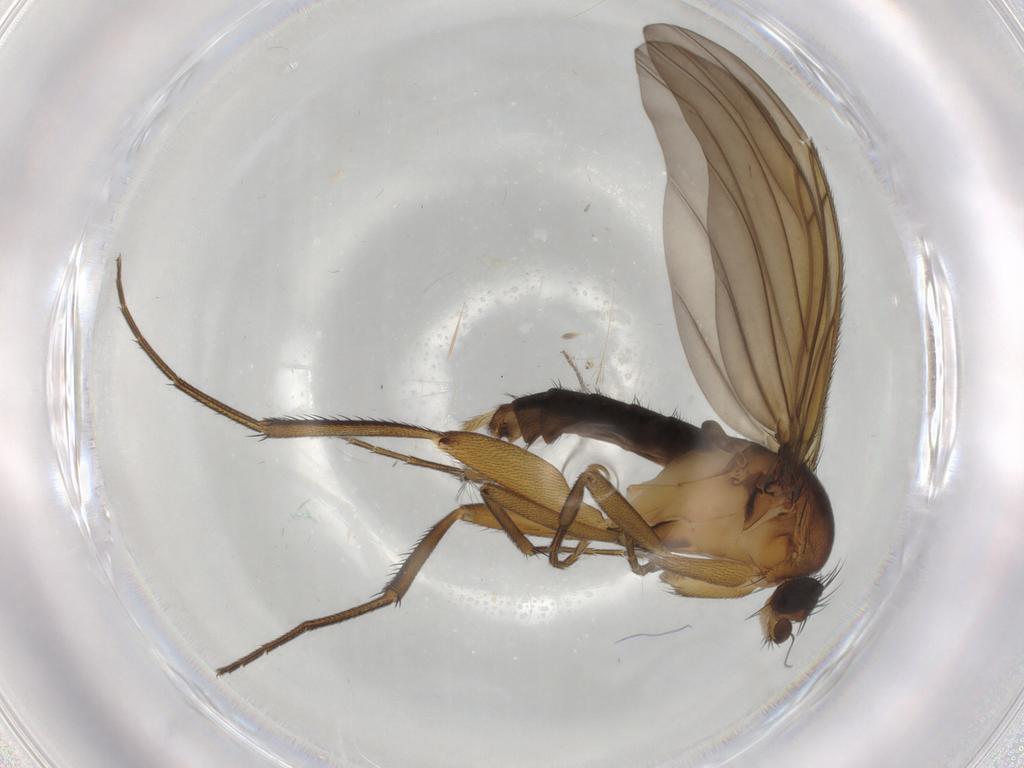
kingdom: Animalia
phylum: Arthropoda
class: Insecta
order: Diptera
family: Phoridae
